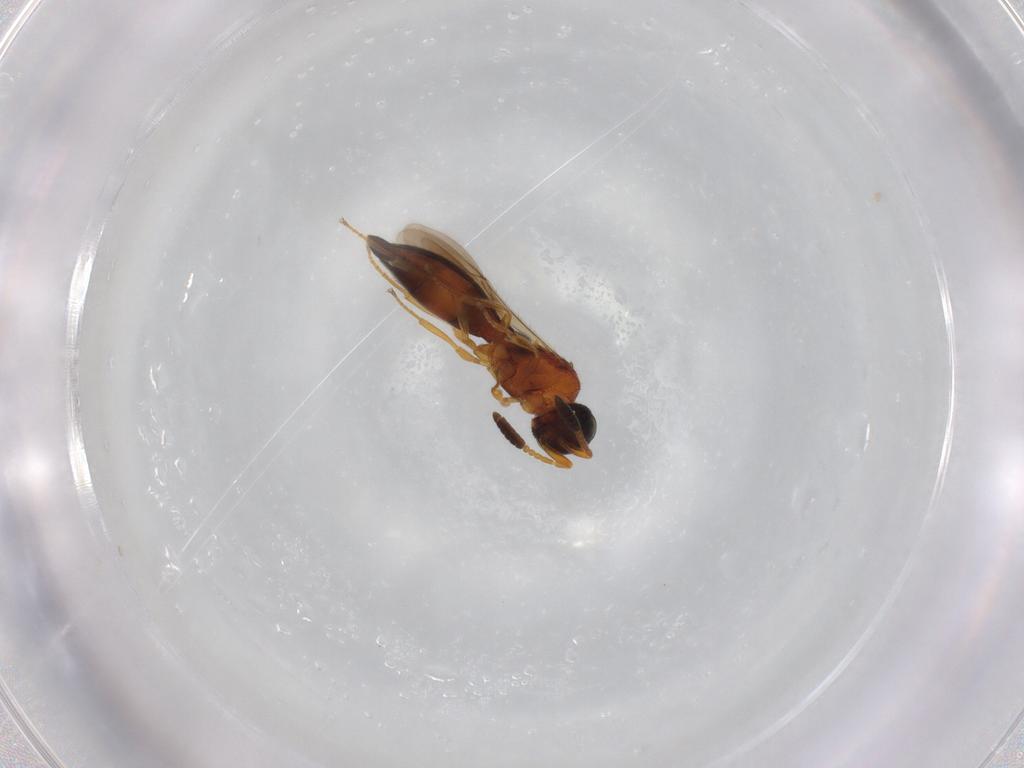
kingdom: Animalia
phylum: Arthropoda
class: Insecta
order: Hymenoptera
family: Scelionidae
